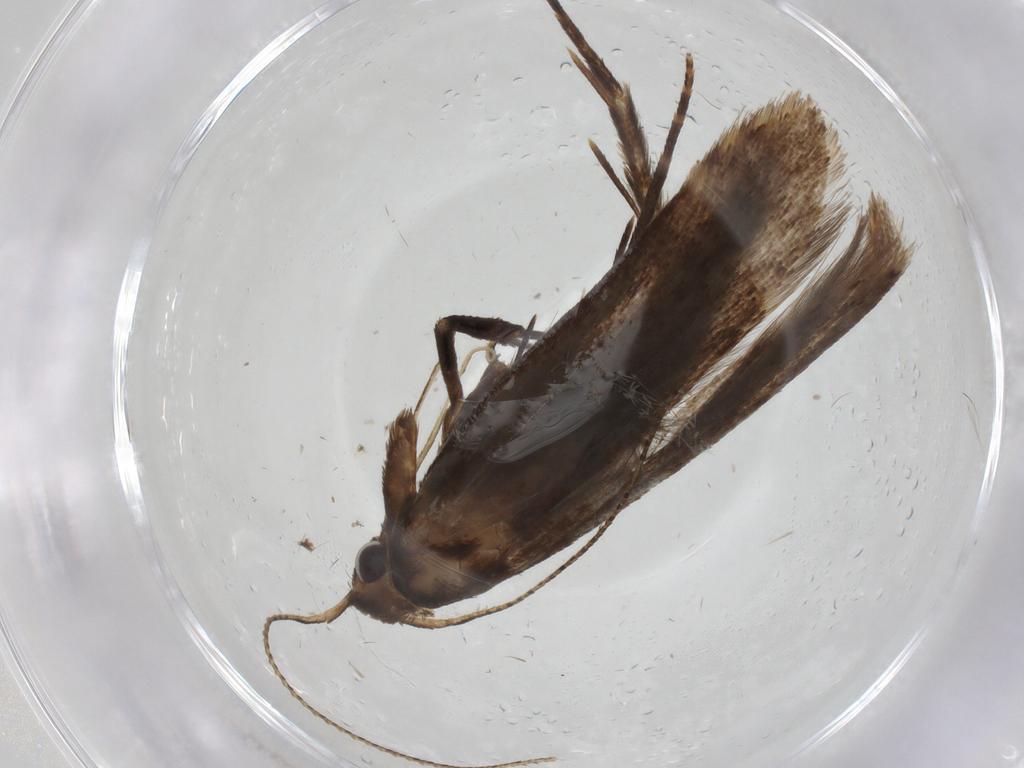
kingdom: Animalia
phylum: Arthropoda
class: Insecta
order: Lepidoptera
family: Gelechiidae
